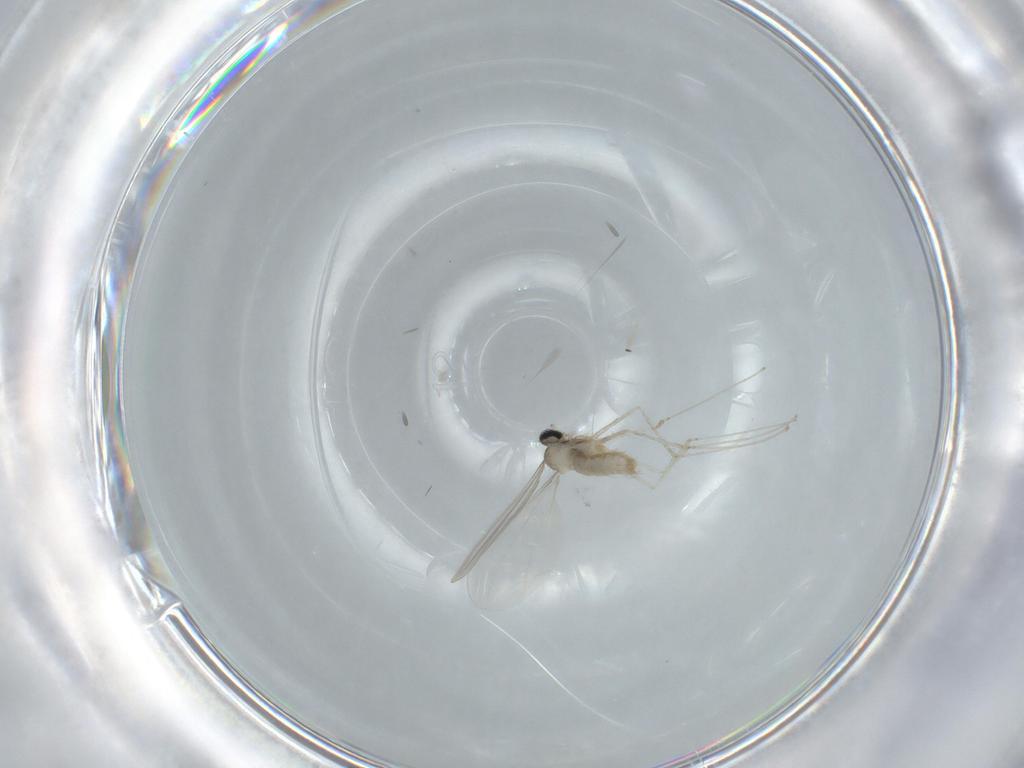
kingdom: Animalia
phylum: Arthropoda
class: Insecta
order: Diptera
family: Cecidomyiidae
